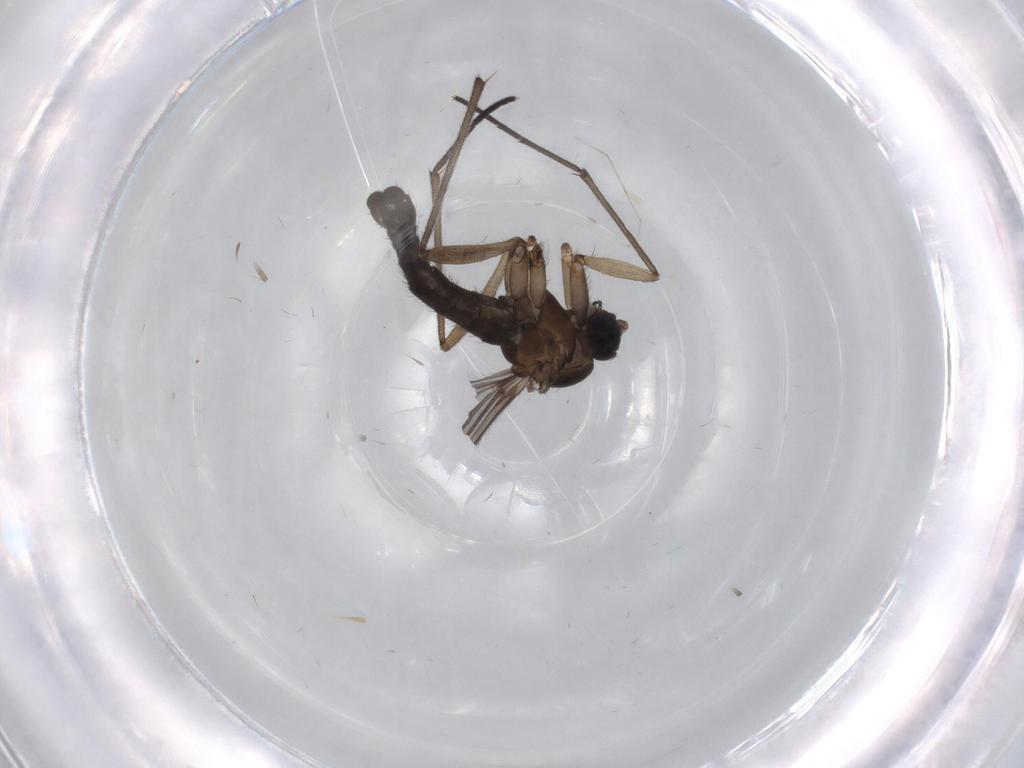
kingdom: Animalia
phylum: Arthropoda
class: Insecta
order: Diptera
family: Sciaridae
